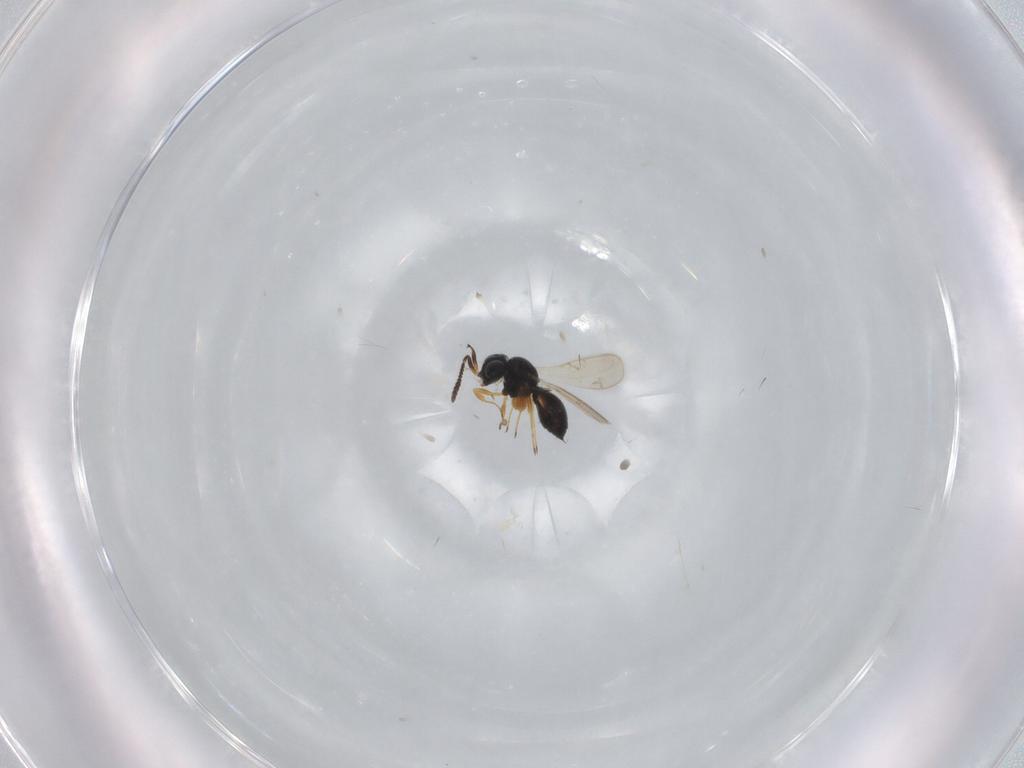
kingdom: Animalia
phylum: Arthropoda
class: Insecta
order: Hymenoptera
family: Scelionidae
